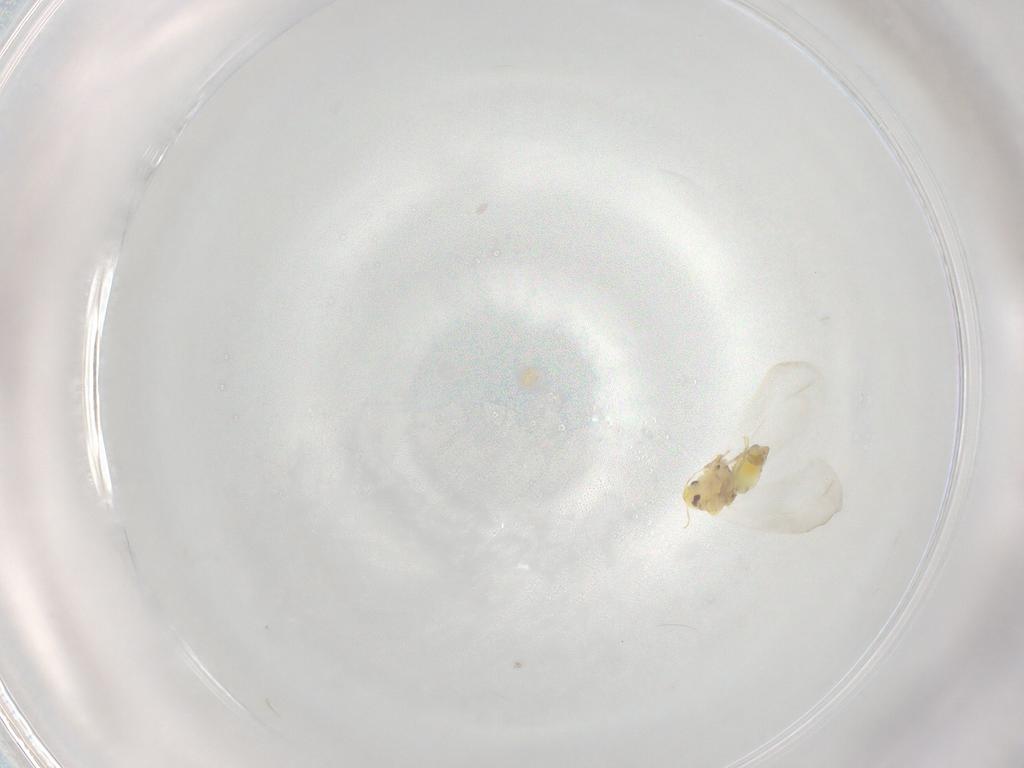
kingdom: Animalia
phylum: Arthropoda
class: Insecta
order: Hemiptera
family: Aleyrodidae
